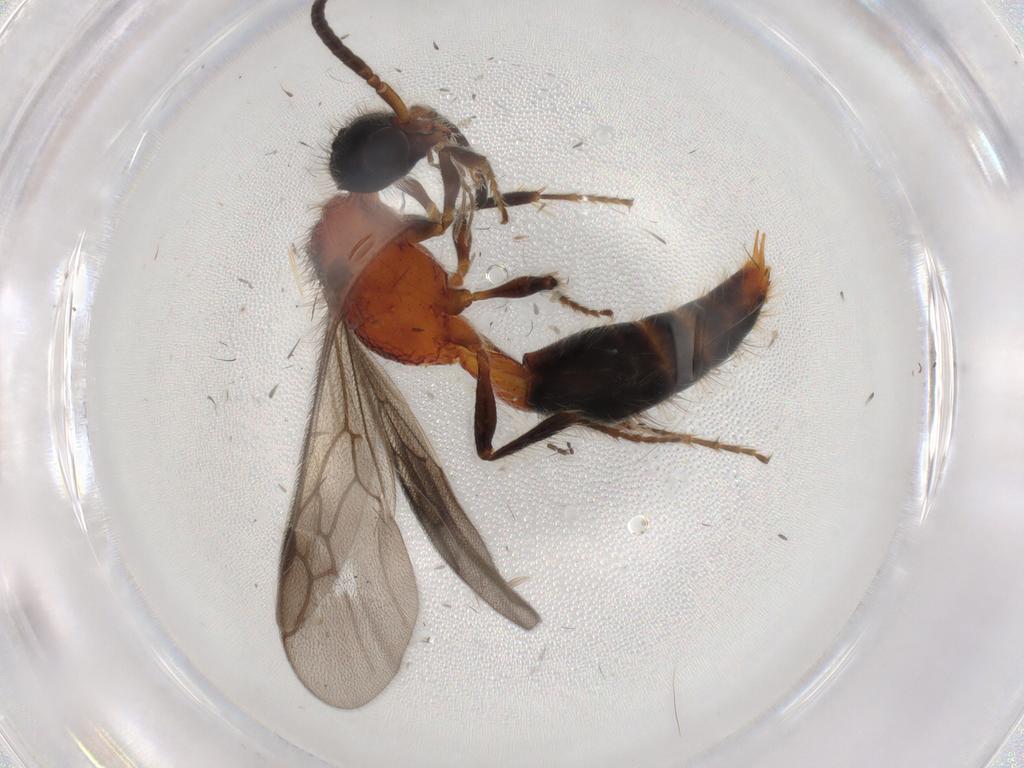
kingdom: Animalia
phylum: Arthropoda
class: Insecta
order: Hymenoptera
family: Mutillidae
